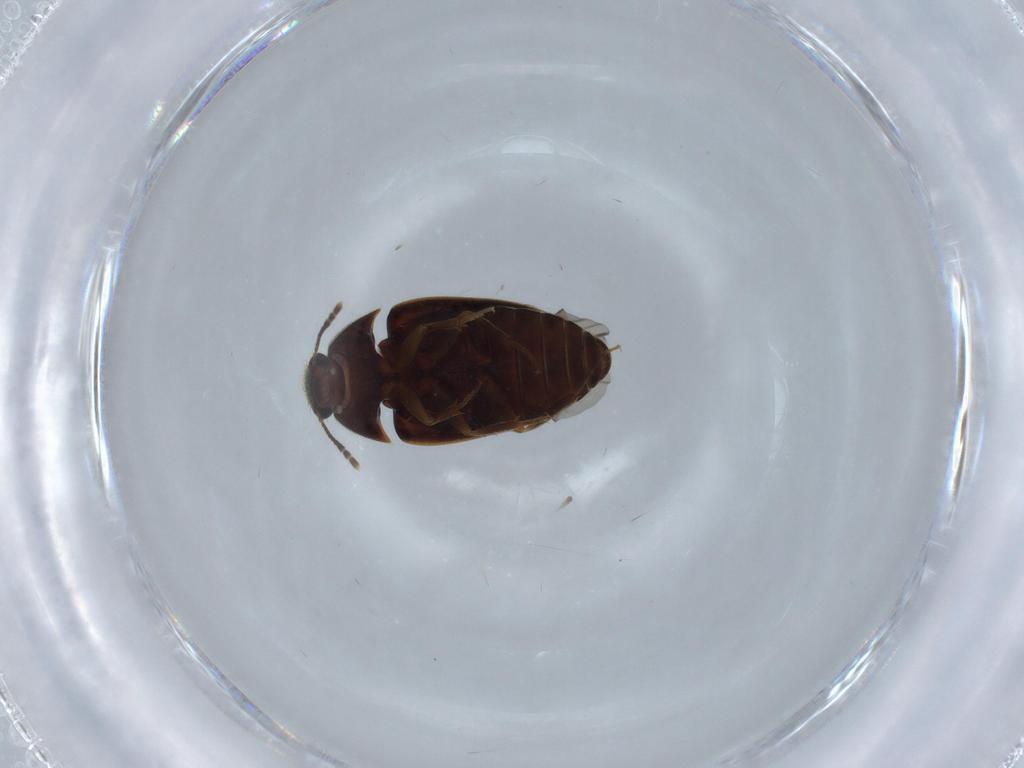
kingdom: Animalia
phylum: Arthropoda
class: Insecta
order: Coleoptera
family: Mycetophagidae
